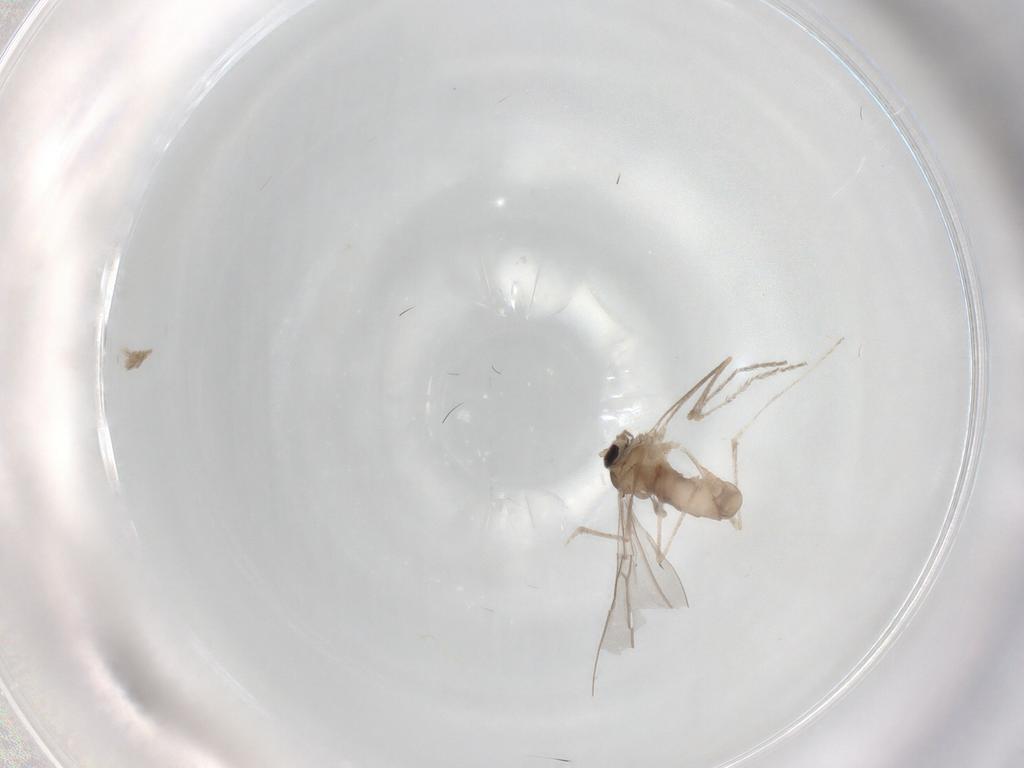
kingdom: Animalia
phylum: Arthropoda
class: Insecta
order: Diptera
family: Cecidomyiidae
